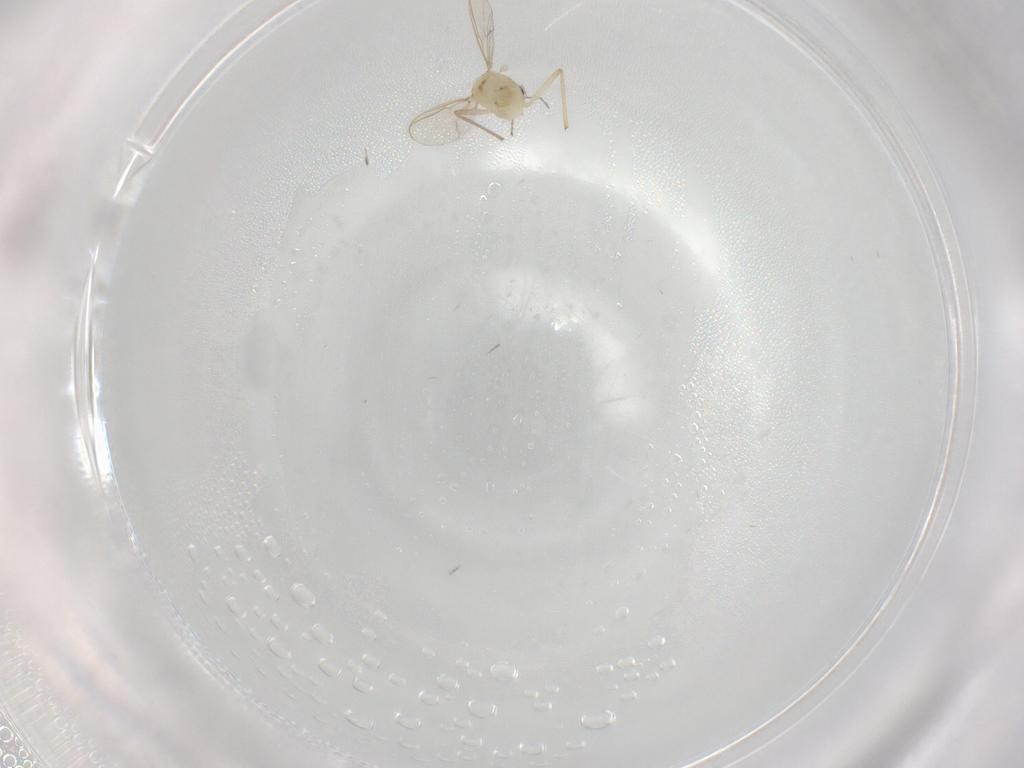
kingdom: Animalia
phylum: Arthropoda
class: Insecta
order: Diptera
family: Chironomidae
